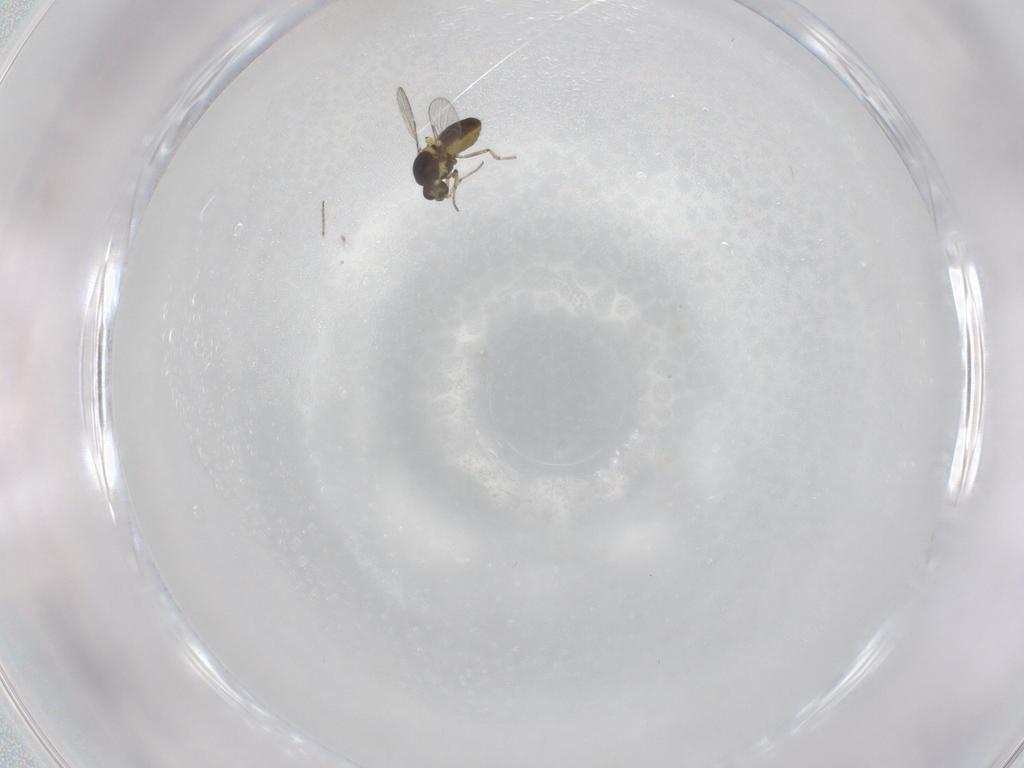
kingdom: Animalia
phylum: Arthropoda
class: Insecta
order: Diptera
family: Ceratopogonidae
